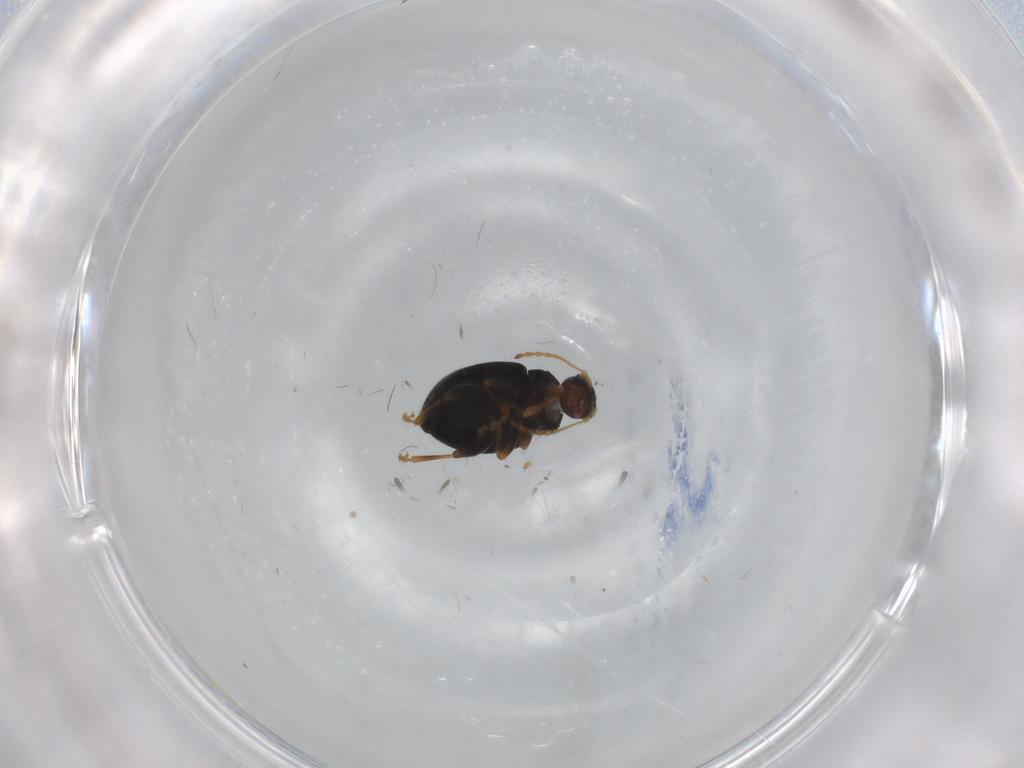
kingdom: Animalia
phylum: Arthropoda
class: Insecta
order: Coleoptera
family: Chrysomelidae
